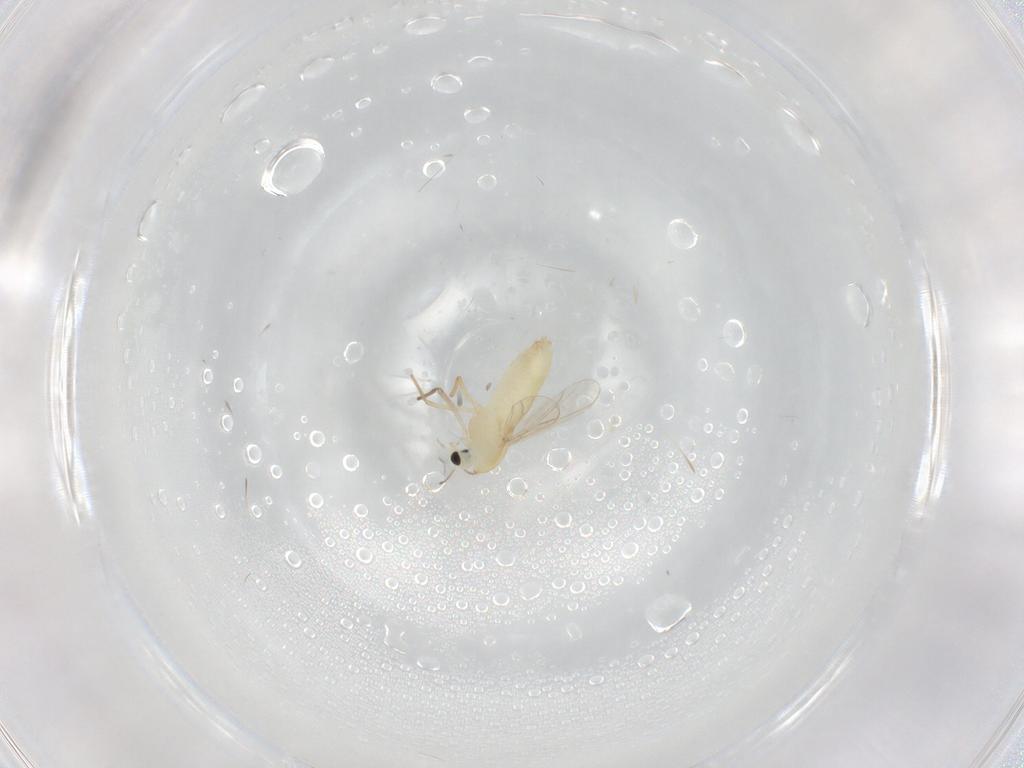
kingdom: Animalia
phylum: Arthropoda
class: Insecta
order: Diptera
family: Chironomidae
